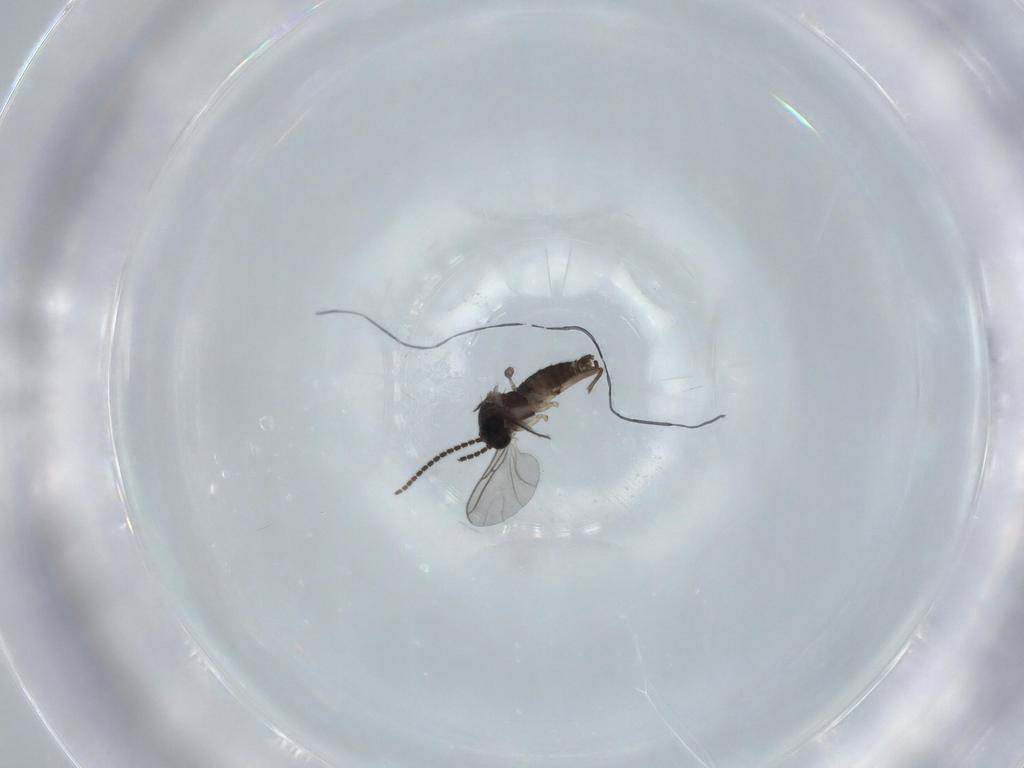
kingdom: Animalia
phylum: Arthropoda
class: Insecta
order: Diptera
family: Sciaridae
